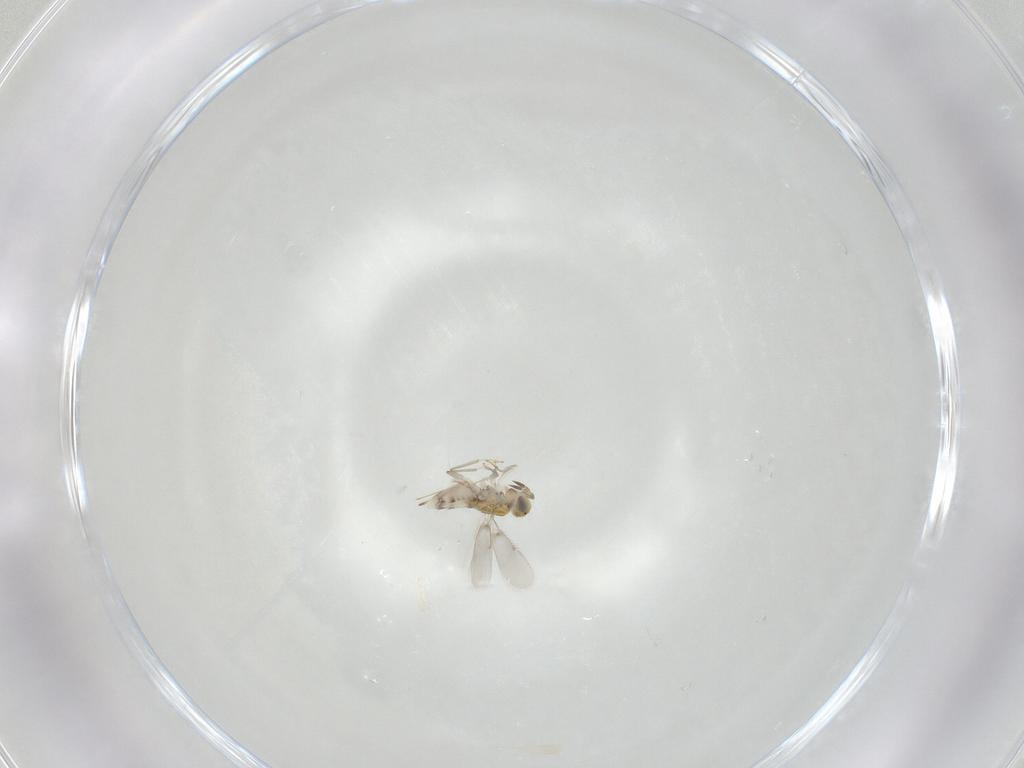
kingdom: Animalia
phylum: Arthropoda
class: Insecta
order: Hymenoptera
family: Aphelinidae
